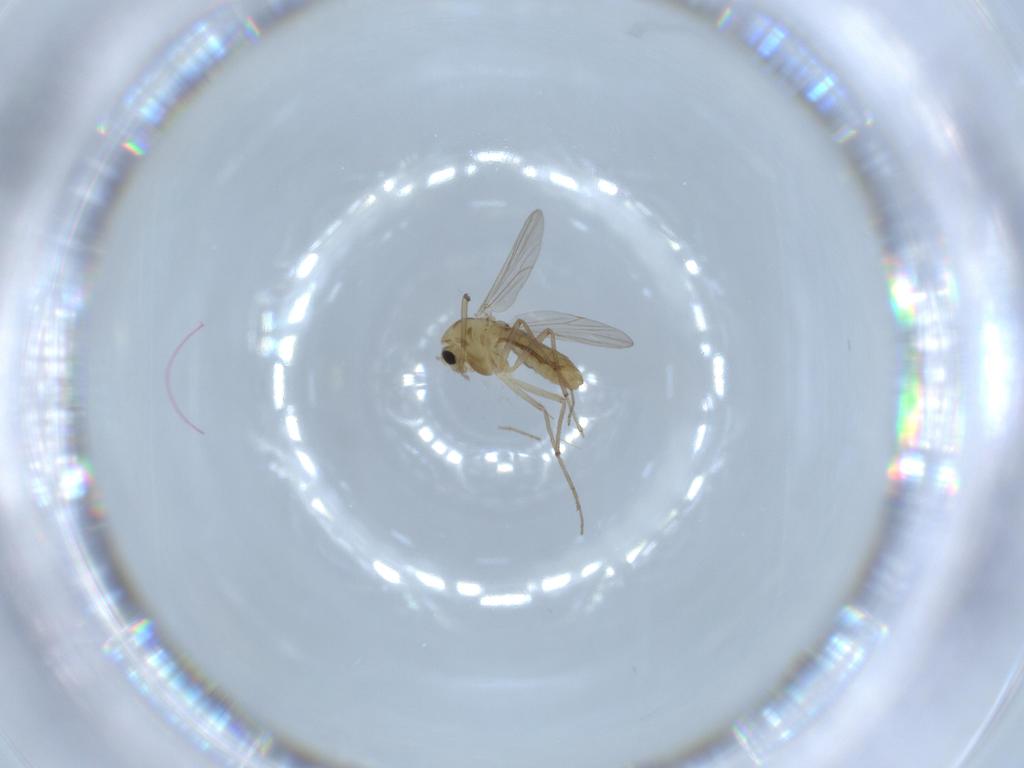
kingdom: Animalia
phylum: Arthropoda
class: Insecta
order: Diptera
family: Chironomidae
